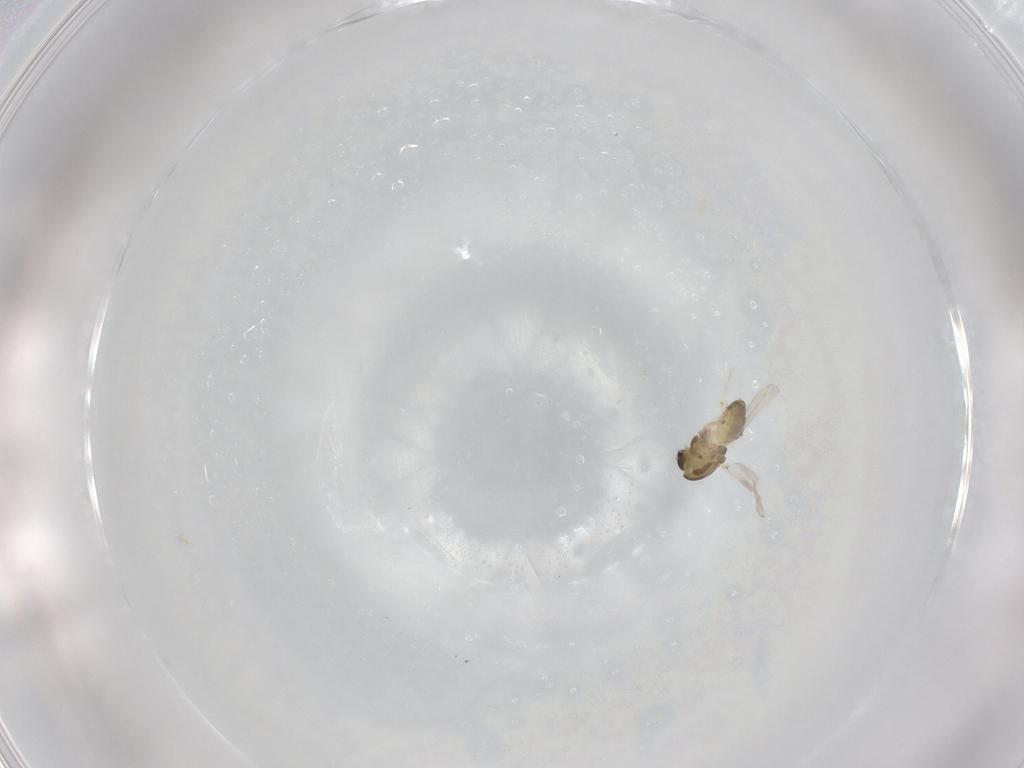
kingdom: Animalia
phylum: Arthropoda
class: Insecta
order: Diptera
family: Chironomidae
